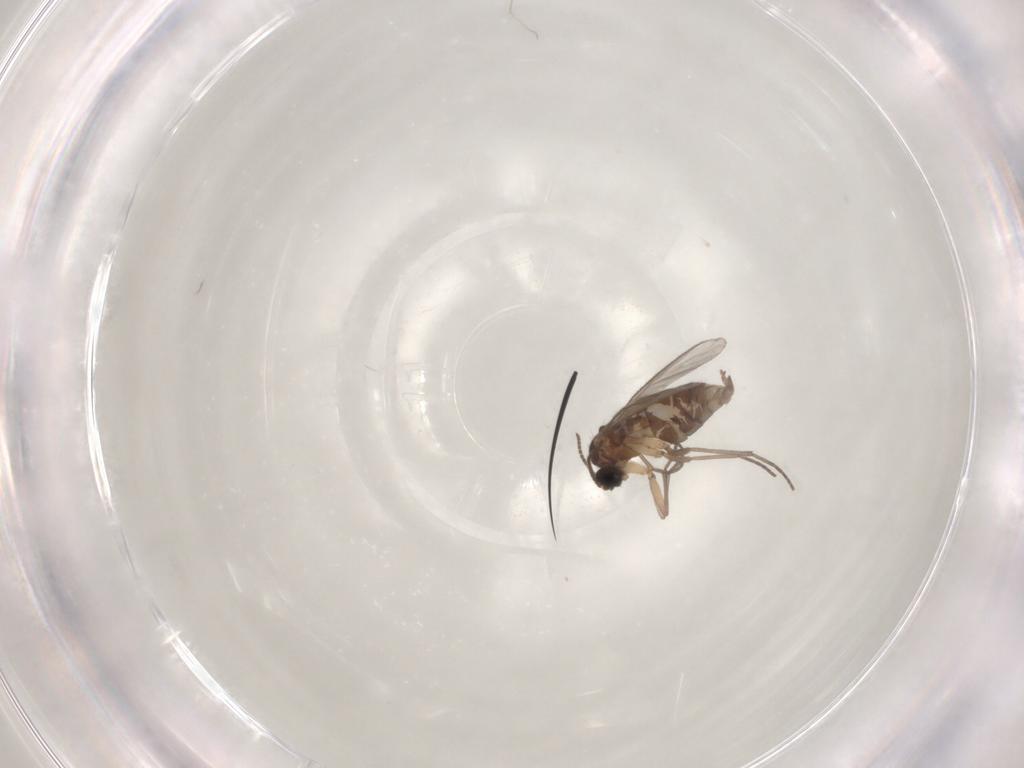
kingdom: Animalia
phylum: Arthropoda
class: Insecta
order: Diptera
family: Sciaridae
